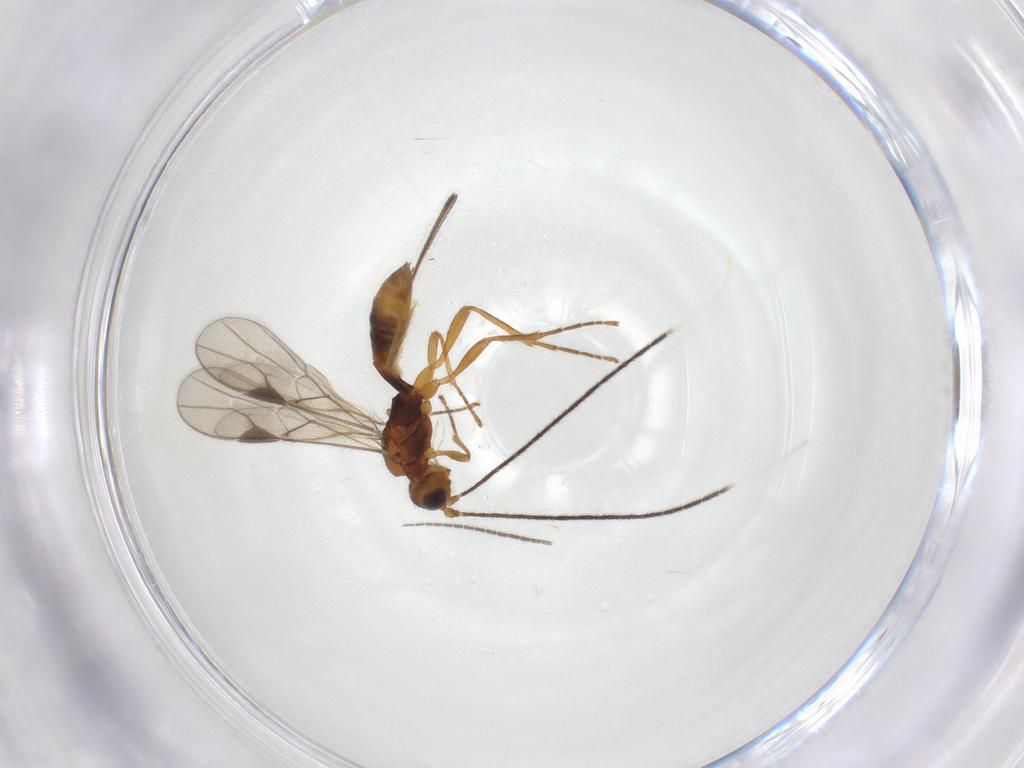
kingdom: Animalia
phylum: Arthropoda
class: Insecta
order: Hymenoptera
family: Braconidae
